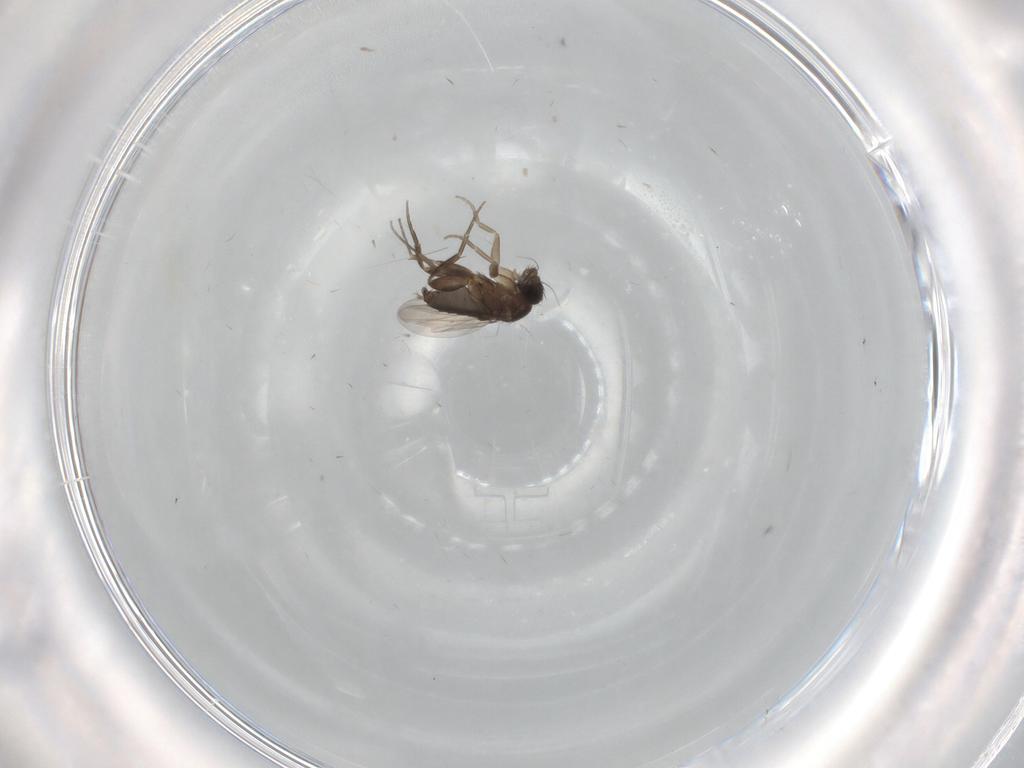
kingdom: Animalia
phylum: Arthropoda
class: Insecta
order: Diptera
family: Cecidomyiidae
